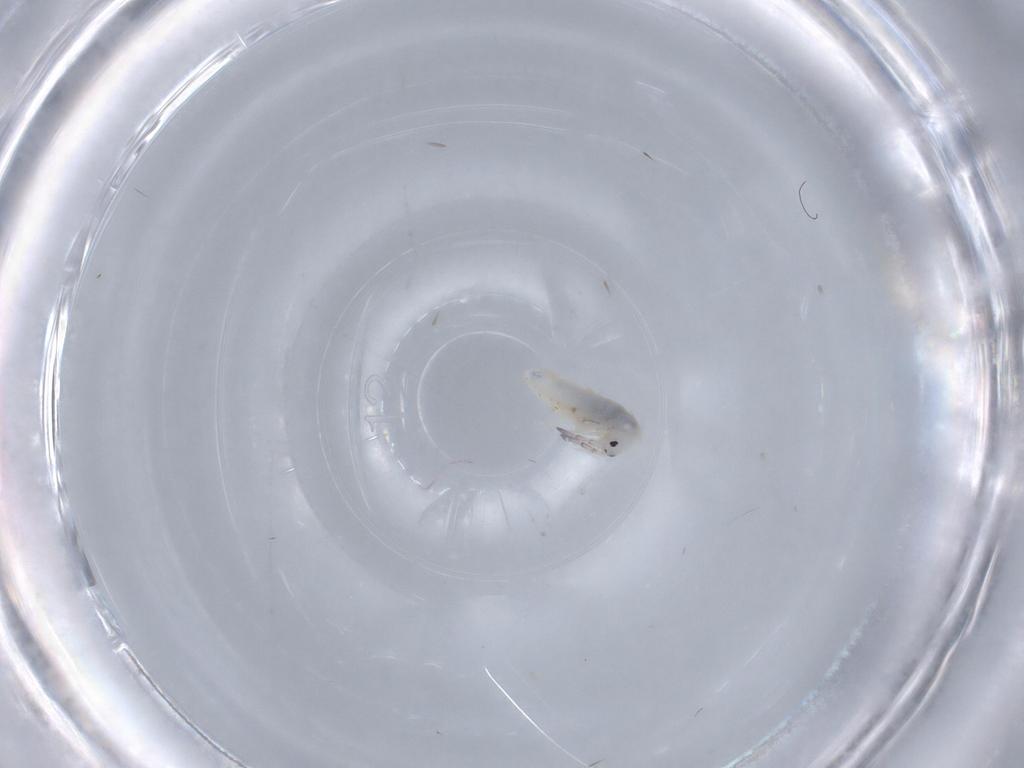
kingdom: Animalia
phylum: Arthropoda
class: Collembola
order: Entomobryomorpha
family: Entomobryidae
